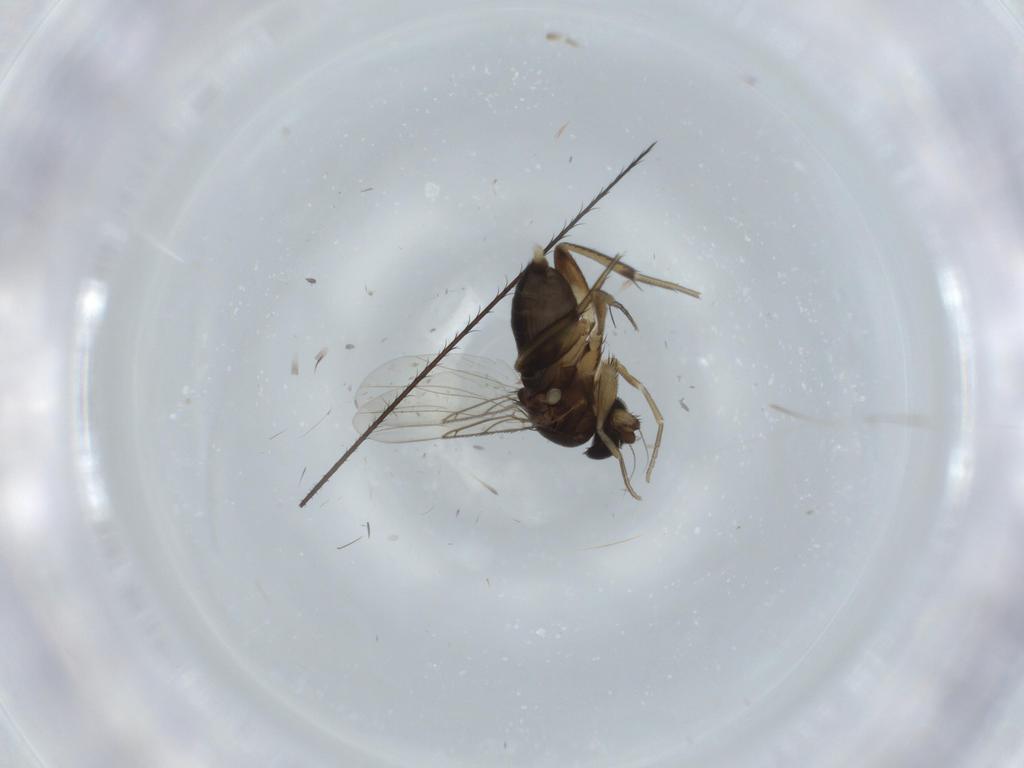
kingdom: Animalia
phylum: Arthropoda
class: Insecta
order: Diptera
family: Phoridae
